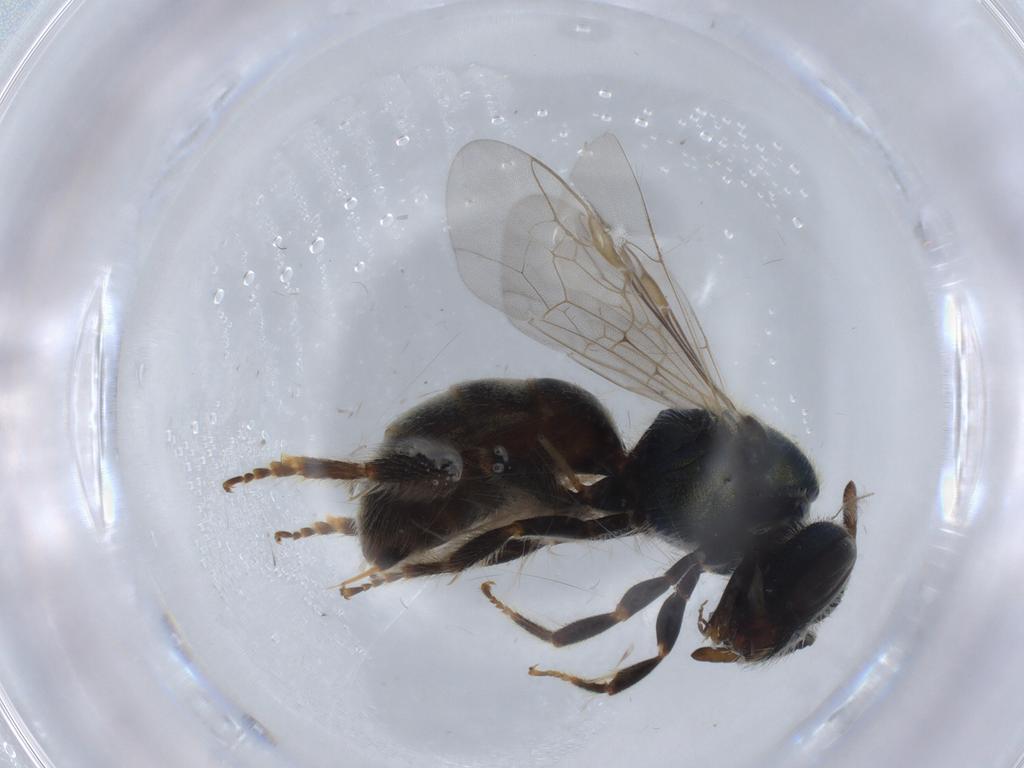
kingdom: Animalia
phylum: Arthropoda
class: Insecta
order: Hymenoptera
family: Halictidae
